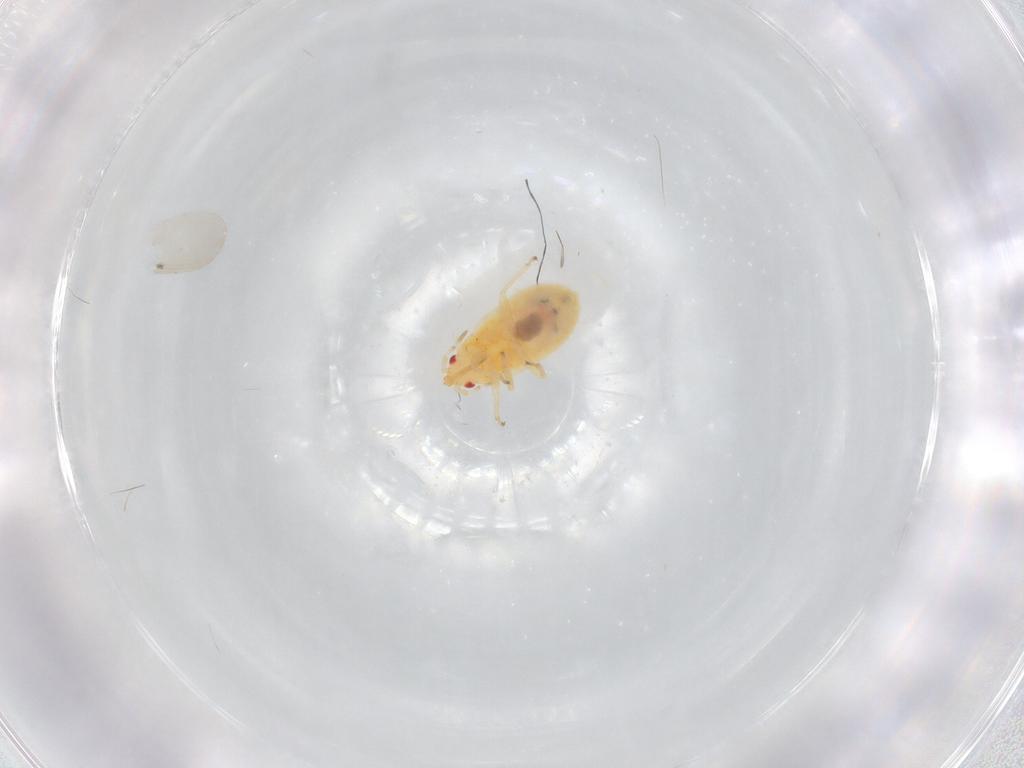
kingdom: Animalia
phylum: Arthropoda
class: Insecta
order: Hemiptera
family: Anthocoridae
